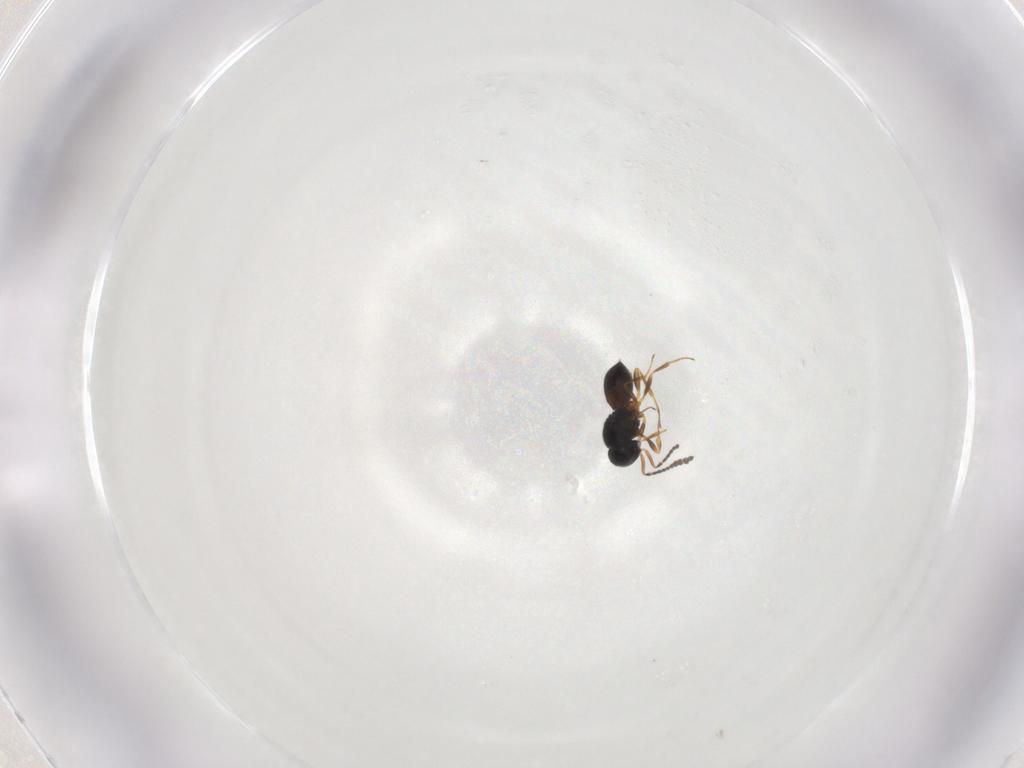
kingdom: Animalia
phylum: Arthropoda
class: Insecta
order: Hymenoptera
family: Scelionidae
